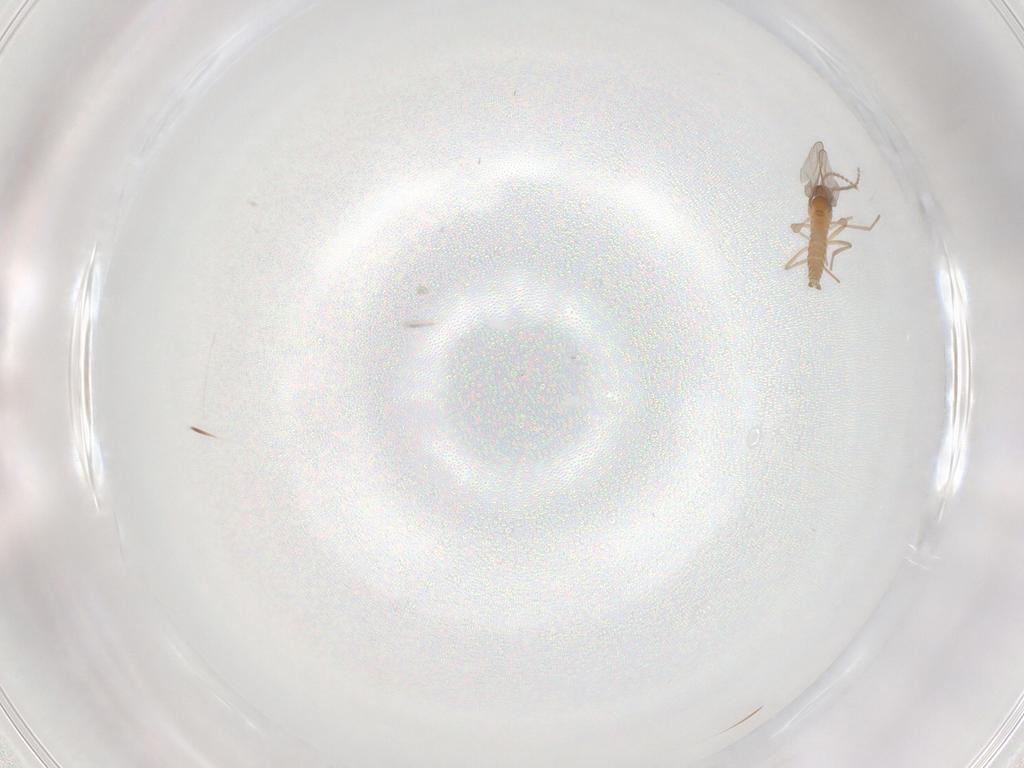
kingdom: Animalia
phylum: Arthropoda
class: Insecta
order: Diptera
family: Cecidomyiidae
